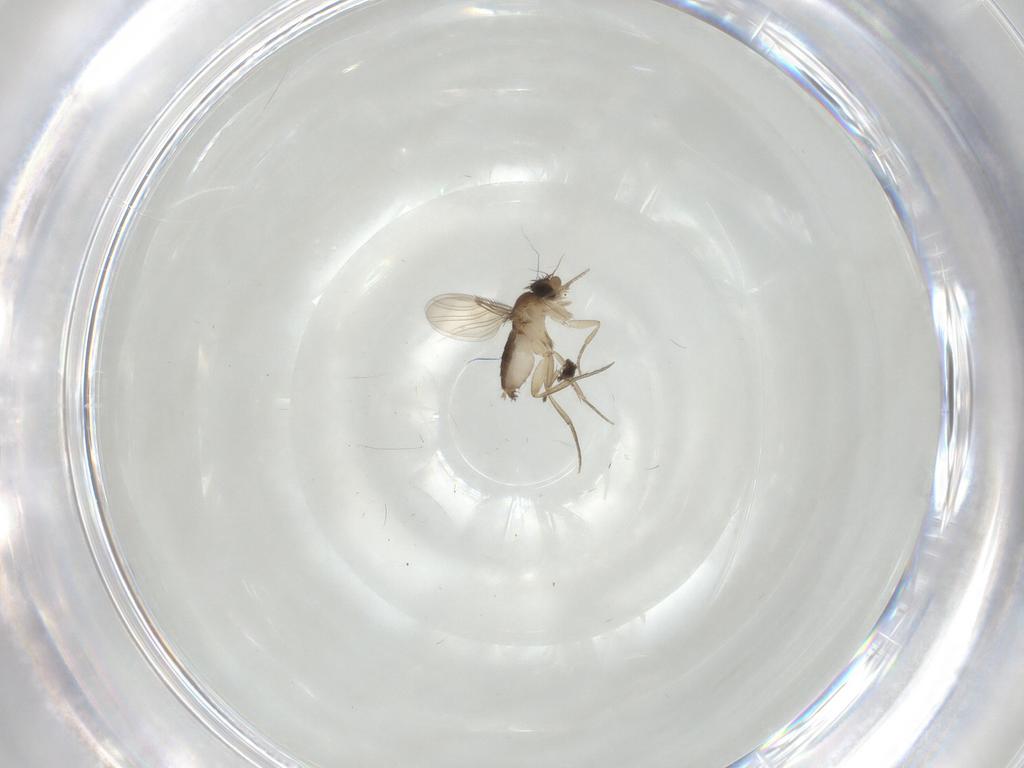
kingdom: Animalia
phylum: Arthropoda
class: Insecta
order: Diptera
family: Phoridae
